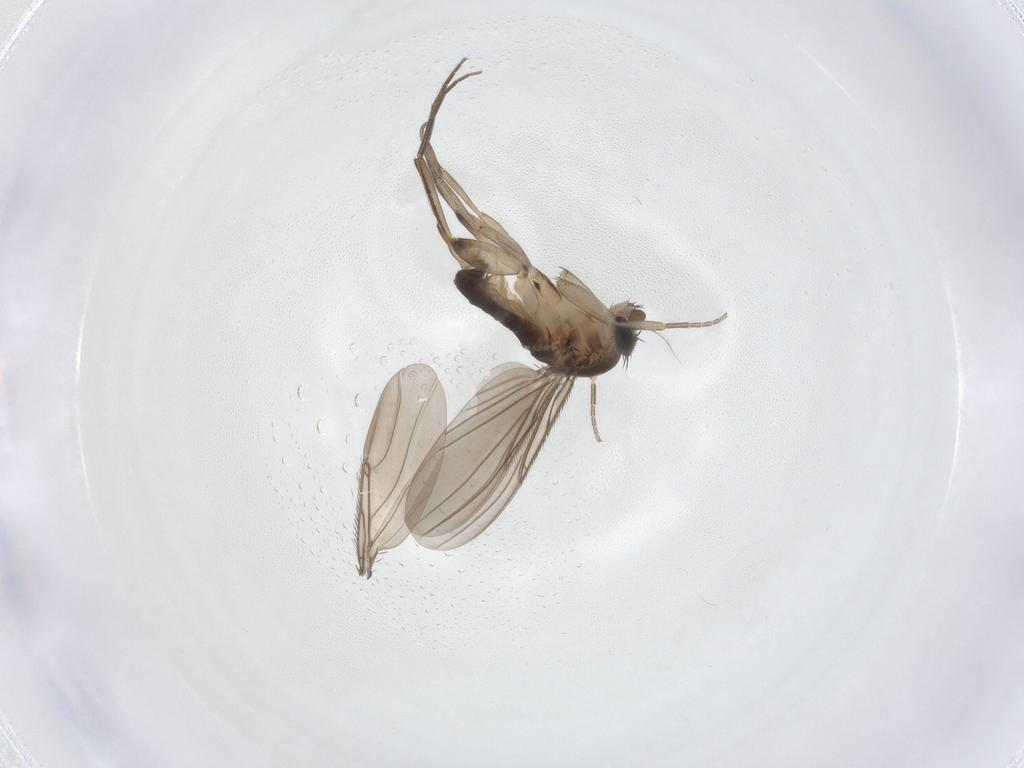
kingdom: Animalia
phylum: Arthropoda
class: Insecta
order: Diptera
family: Phoridae
